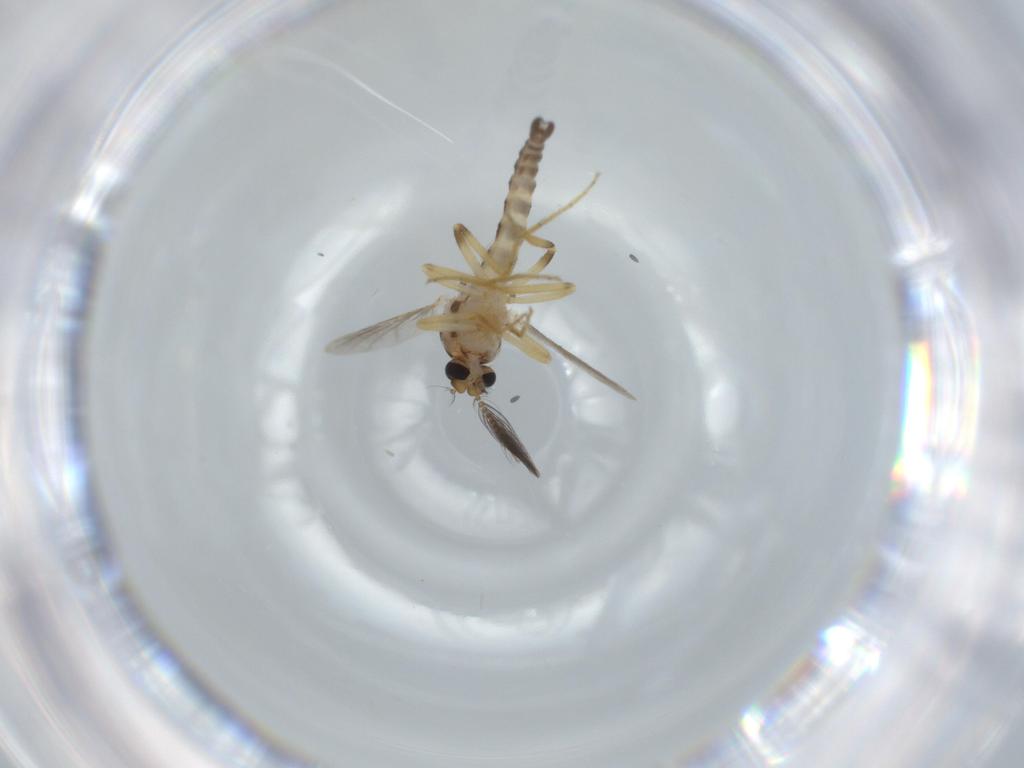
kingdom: Animalia
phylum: Arthropoda
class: Insecta
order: Diptera
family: Ceratopogonidae
